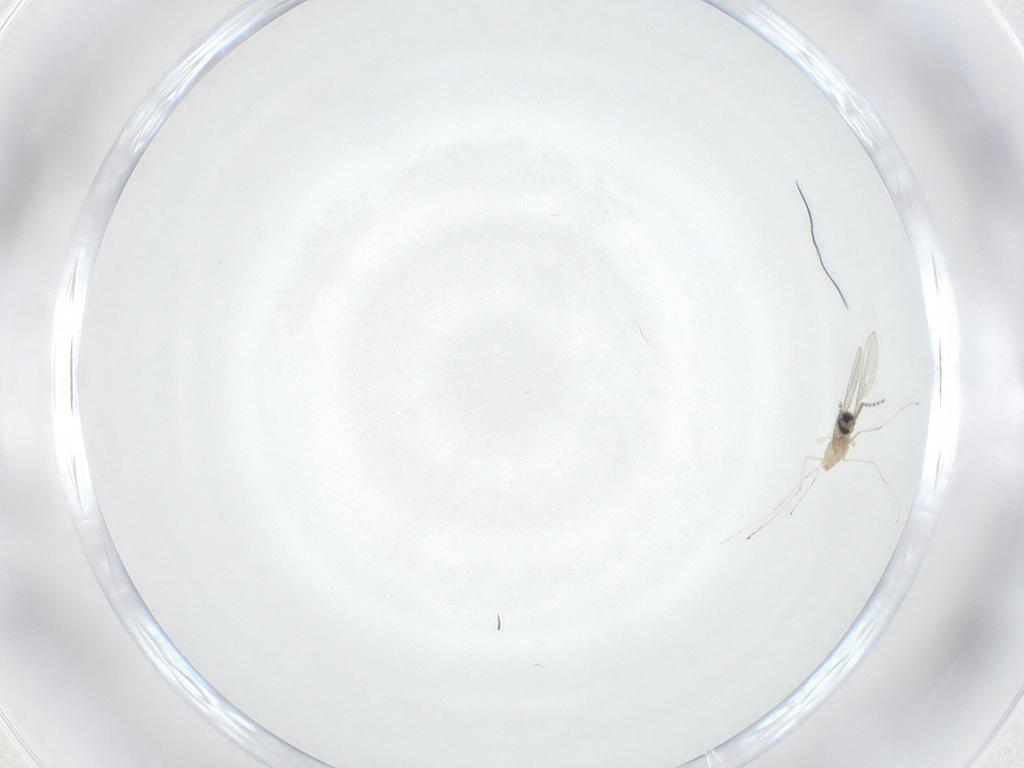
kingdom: Animalia
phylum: Arthropoda
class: Insecta
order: Diptera
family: Cecidomyiidae
